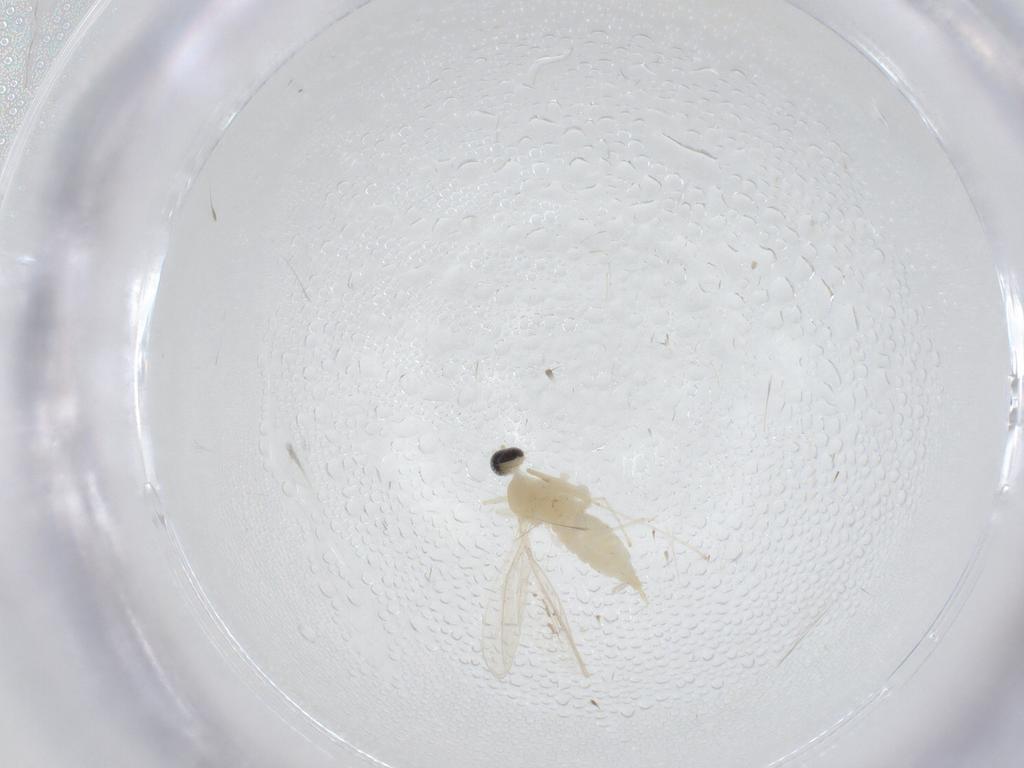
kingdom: Animalia
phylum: Arthropoda
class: Insecta
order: Diptera
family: Cecidomyiidae
